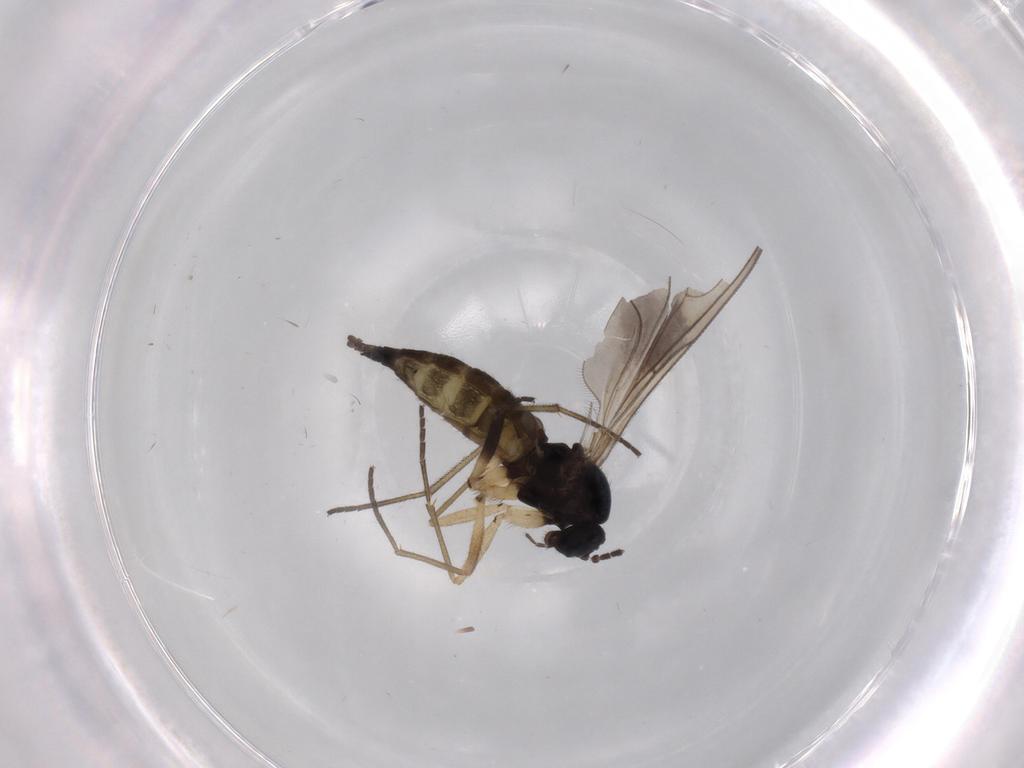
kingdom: Animalia
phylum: Arthropoda
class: Insecta
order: Diptera
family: Sciaridae
